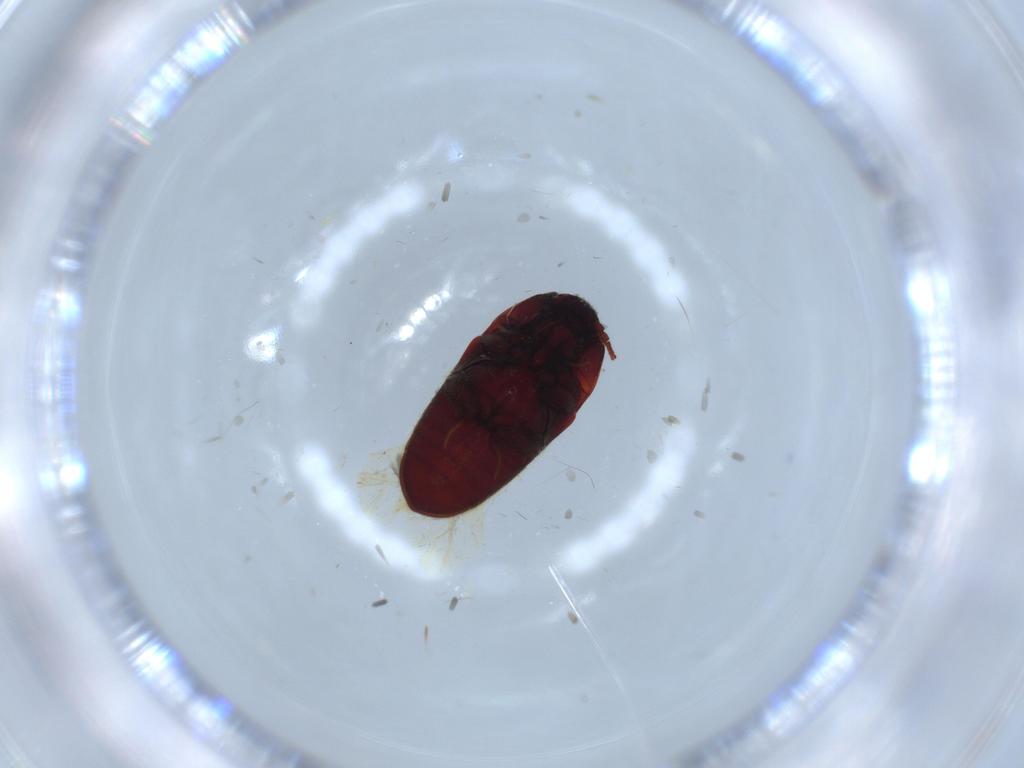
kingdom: Animalia
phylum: Arthropoda
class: Insecta
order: Coleoptera
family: Throscidae
